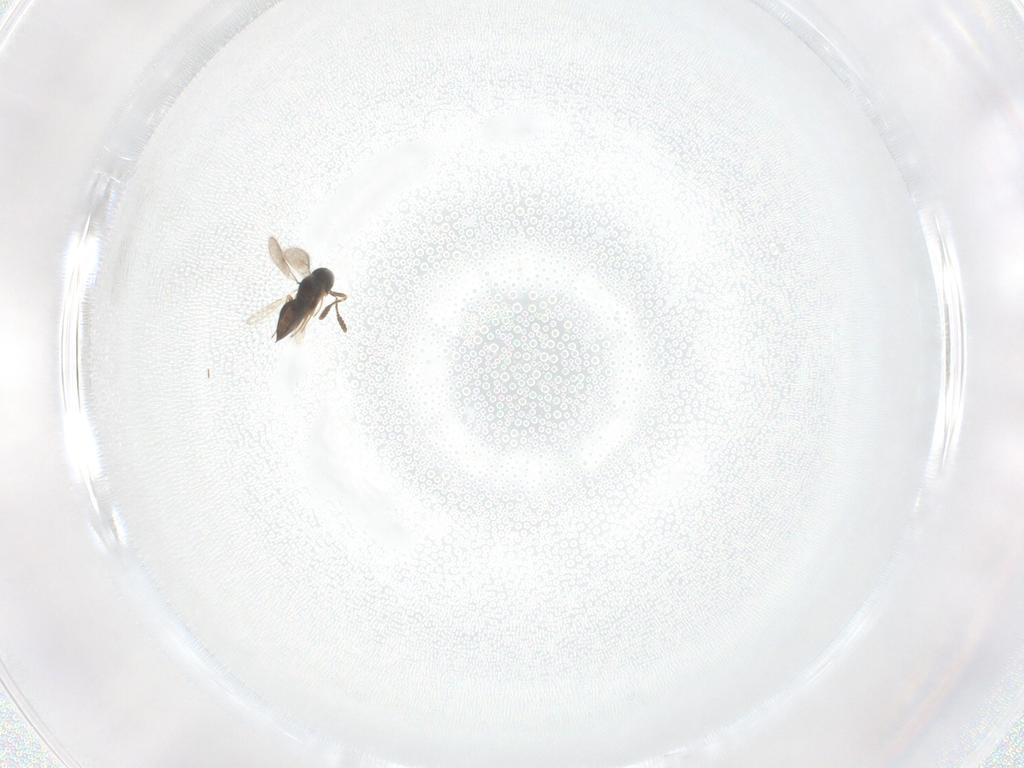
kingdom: Animalia
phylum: Arthropoda
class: Insecta
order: Hymenoptera
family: Scelionidae
